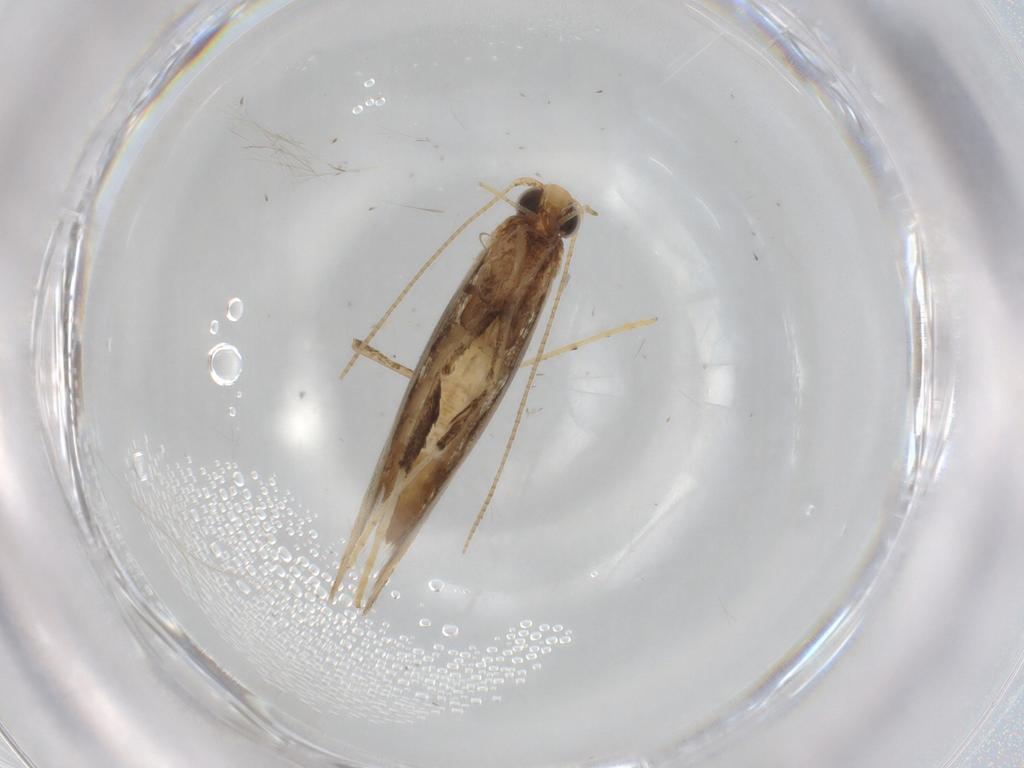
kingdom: Animalia
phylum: Arthropoda
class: Insecta
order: Lepidoptera
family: Gracillariidae
